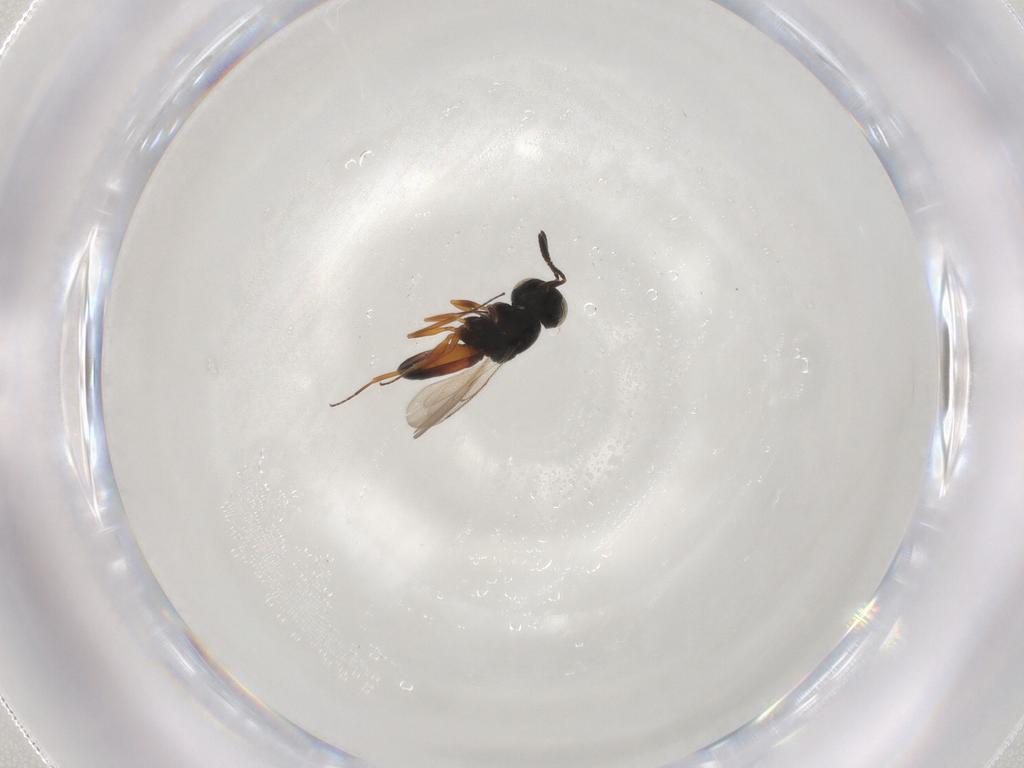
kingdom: Animalia
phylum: Arthropoda
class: Insecta
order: Hymenoptera
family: Scelionidae
